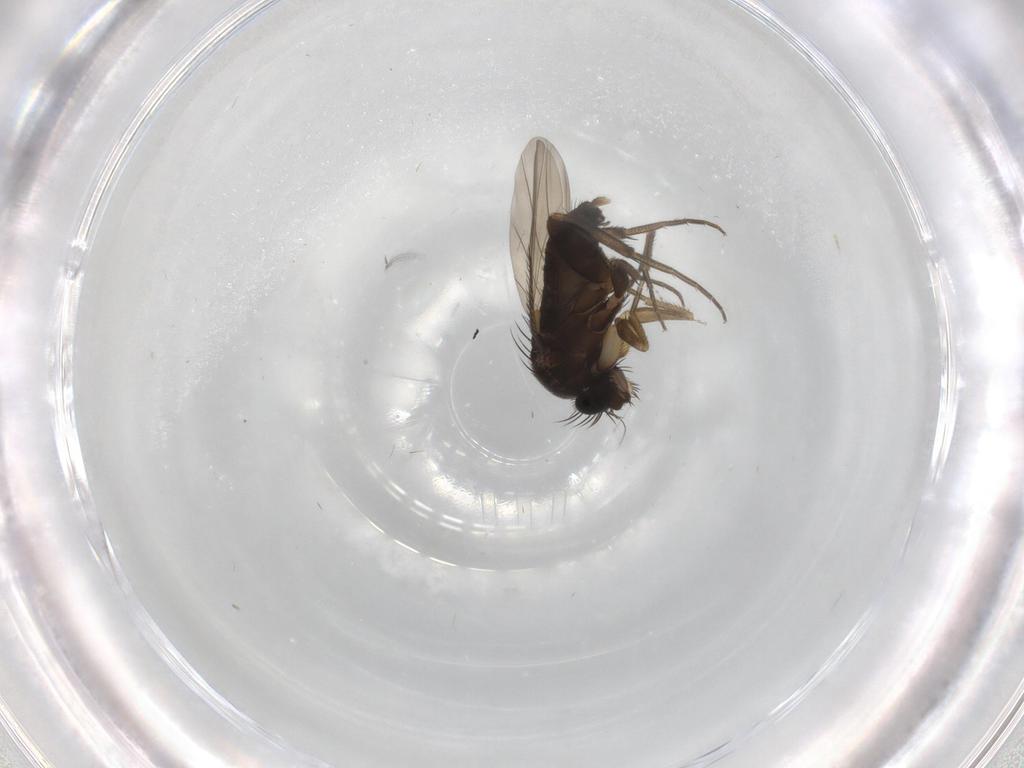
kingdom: Animalia
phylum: Arthropoda
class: Insecta
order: Diptera
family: Phoridae
